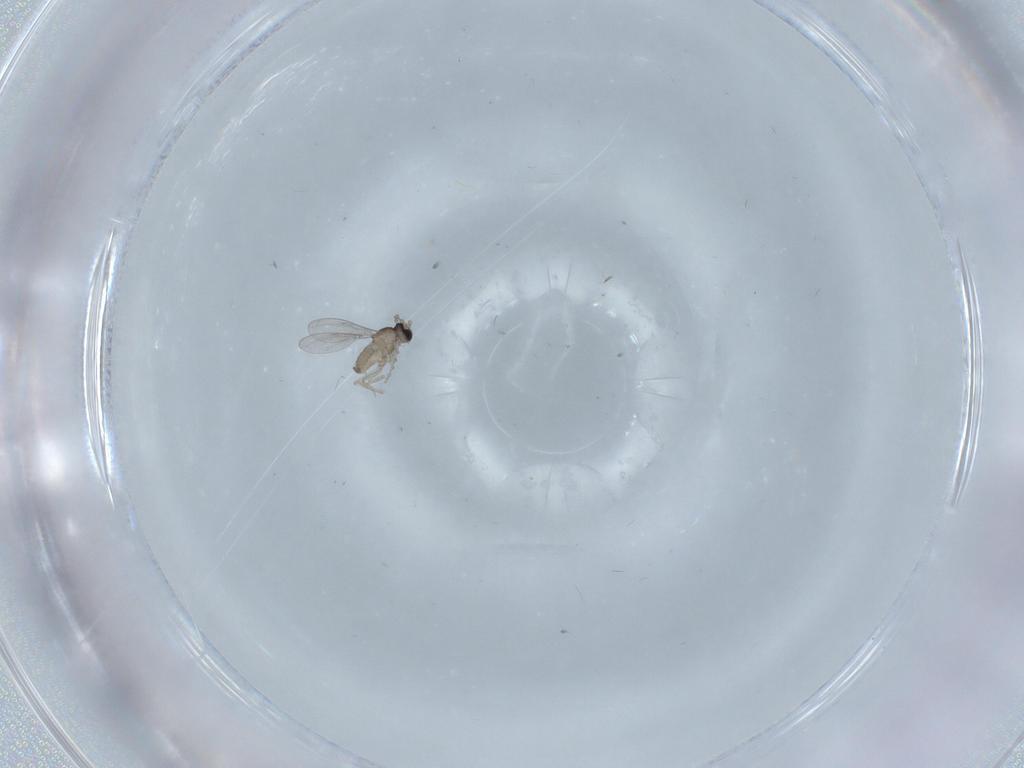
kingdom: Animalia
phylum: Arthropoda
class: Insecta
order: Diptera
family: Cecidomyiidae
